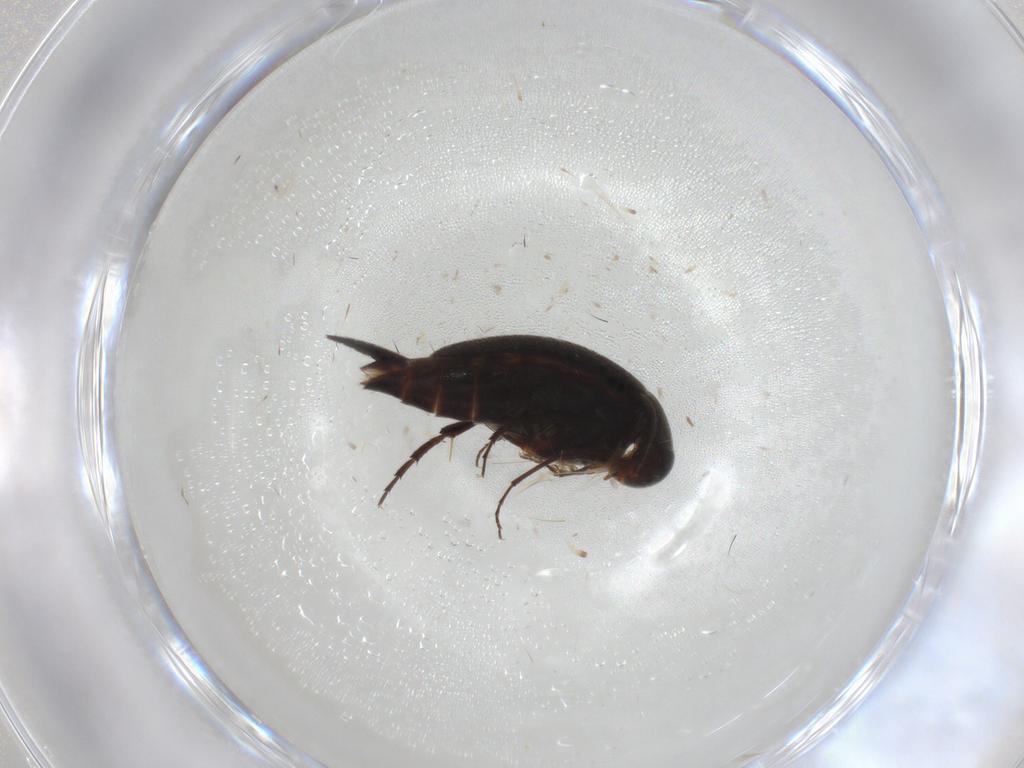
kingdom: Animalia
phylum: Arthropoda
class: Insecta
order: Coleoptera
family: Mordellidae
